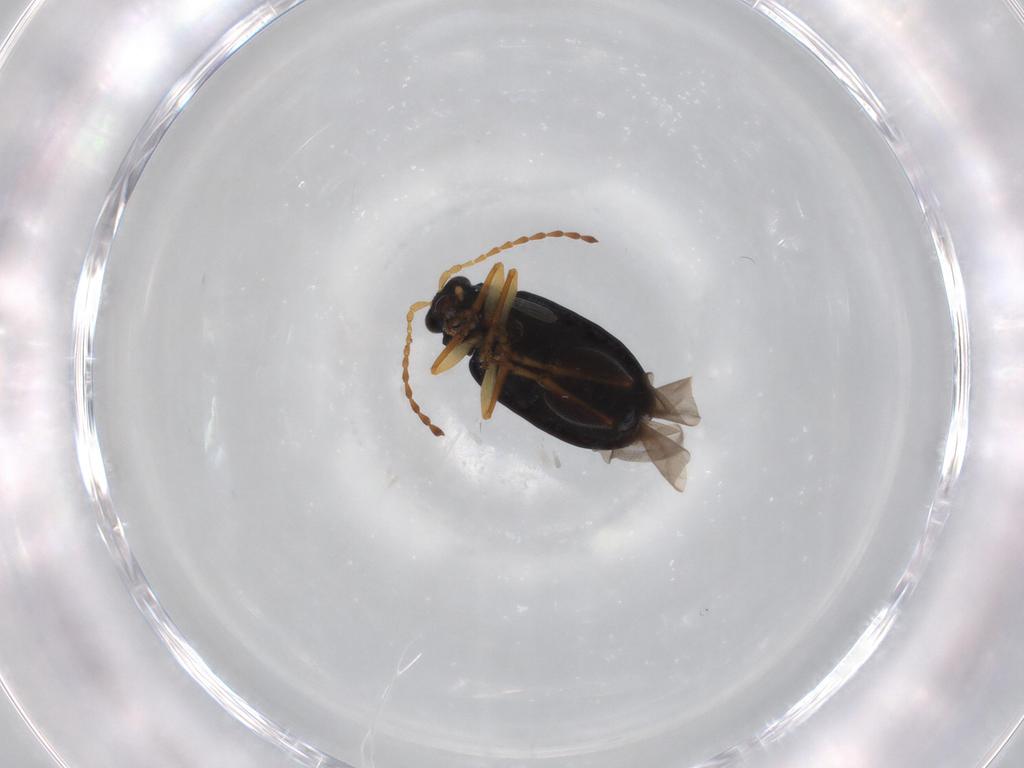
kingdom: Animalia
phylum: Arthropoda
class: Insecta
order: Coleoptera
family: Chrysomelidae
